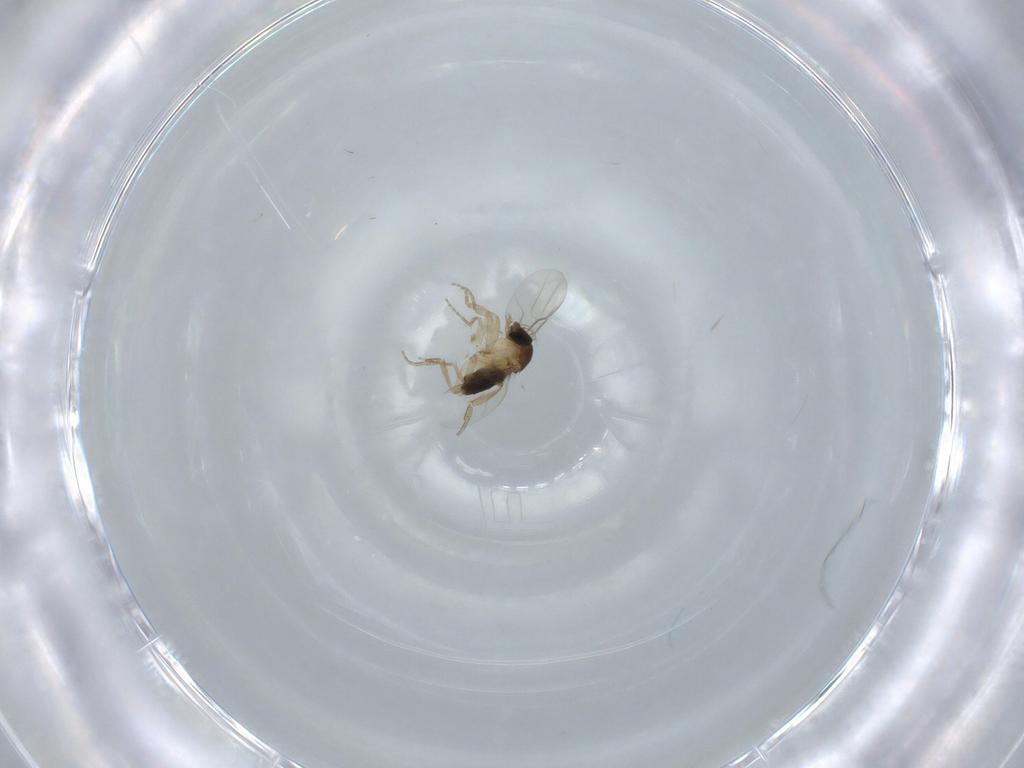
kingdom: Animalia
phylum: Arthropoda
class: Insecta
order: Diptera
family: Phoridae
